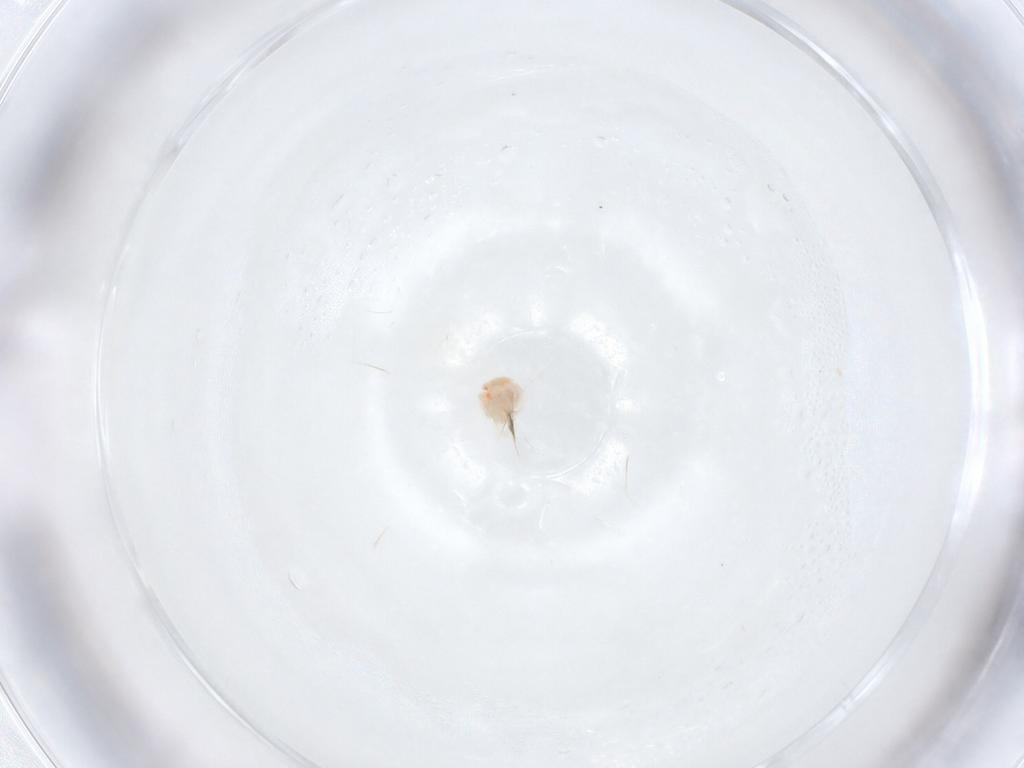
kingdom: Animalia
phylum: Arthropoda
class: Arachnida
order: Trombidiformes
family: Anystidae
